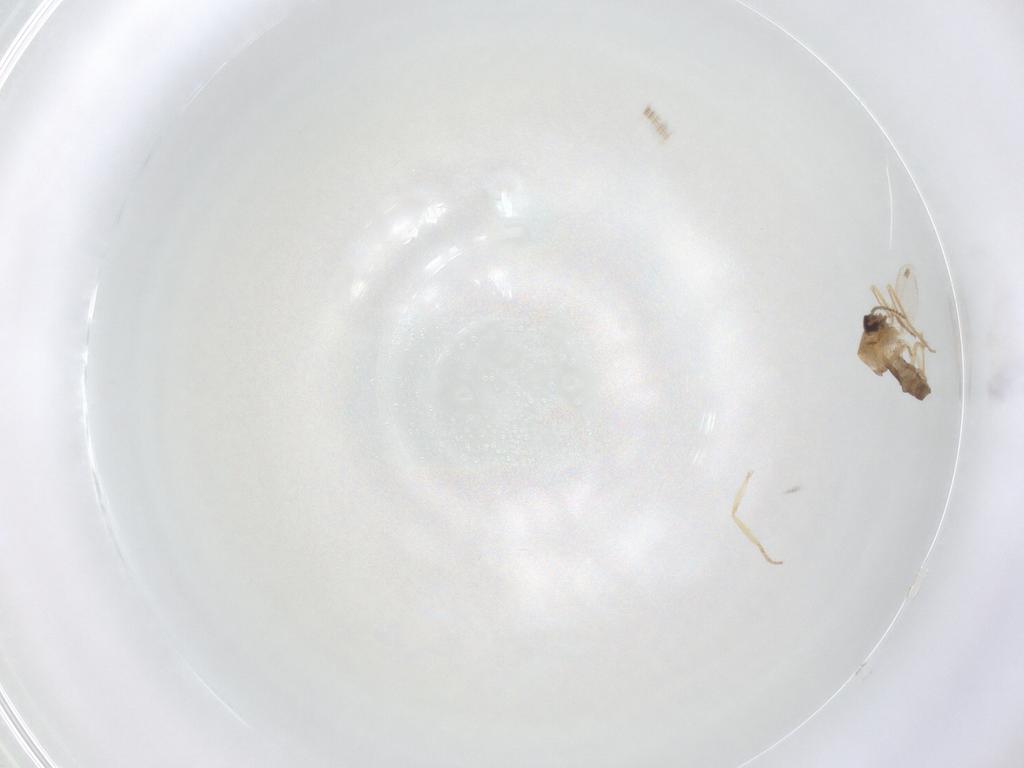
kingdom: Animalia
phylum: Arthropoda
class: Insecta
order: Diptera
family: Ceratopogonidae
